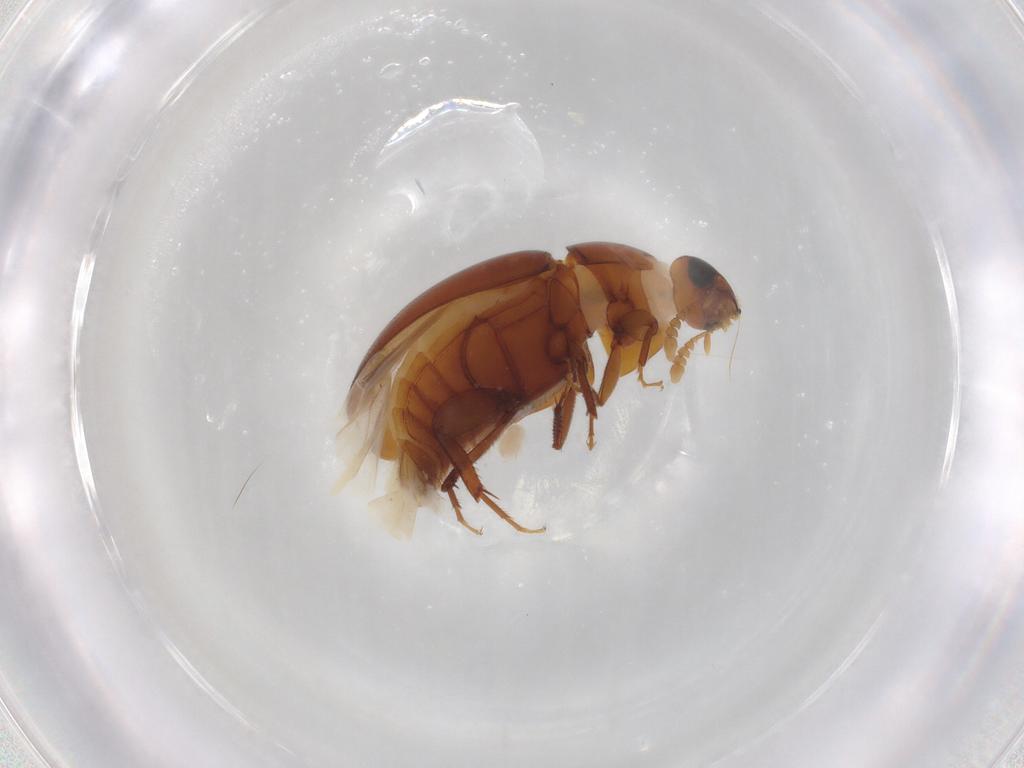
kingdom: Animalia
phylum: Arthropoda
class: Insecta
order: Coleoptera
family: Phalacridae
